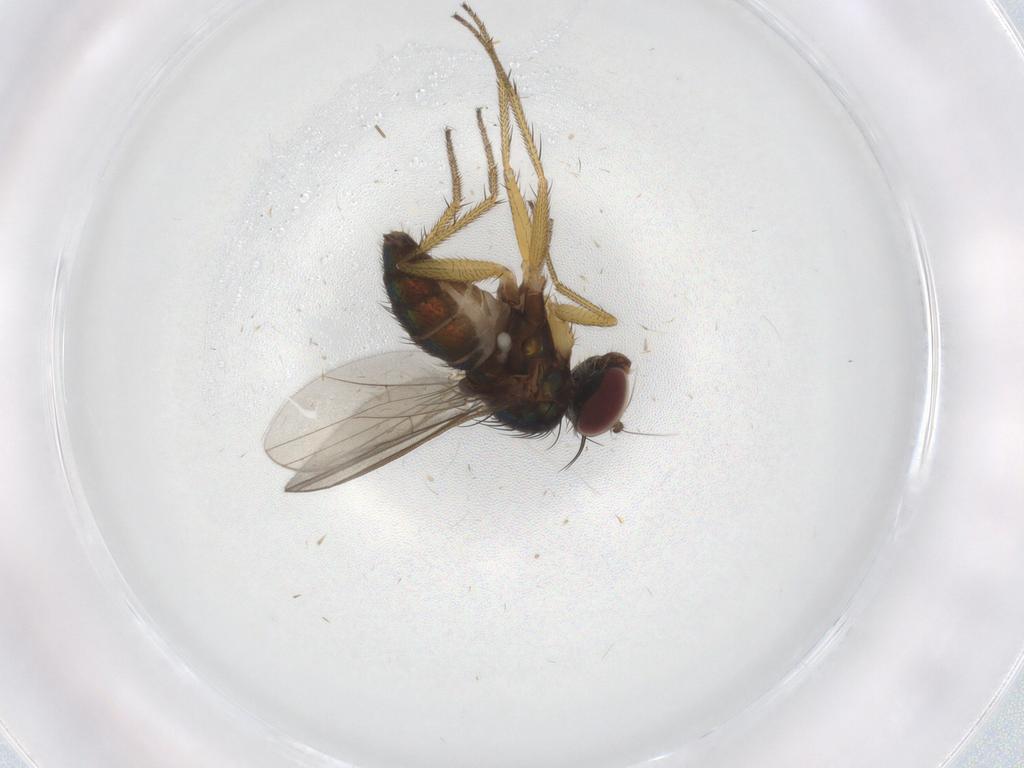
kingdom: Animalia
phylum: Arthropoda
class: Insecta
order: Diptera
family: Dolichopodidae
